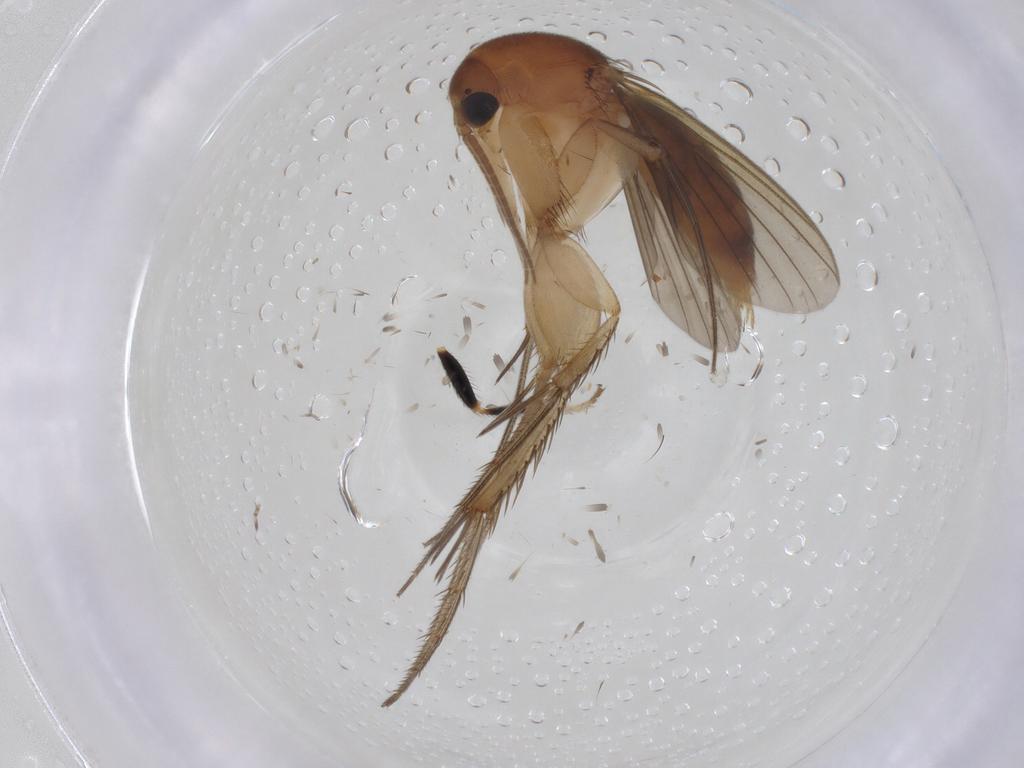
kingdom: Animalia
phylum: Arthropoda
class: Insecta
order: Diptera
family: Mycetophilidae
